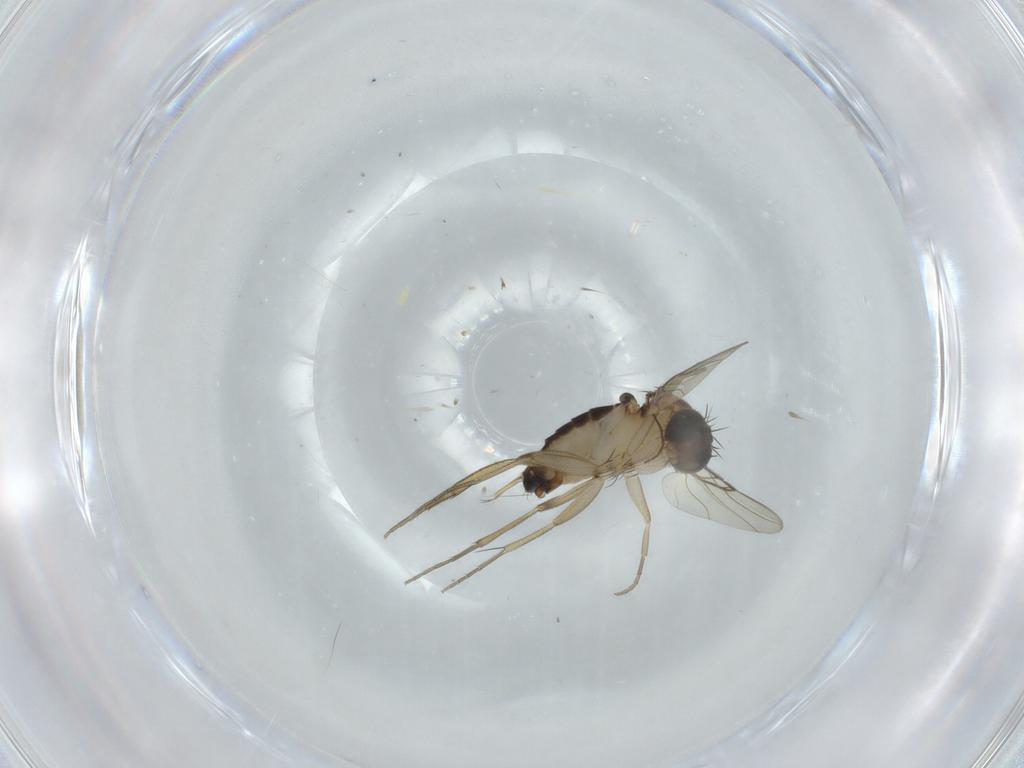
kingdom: Animalia
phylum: Arthropoda
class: Insecta
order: Diptera
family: Phoridae
